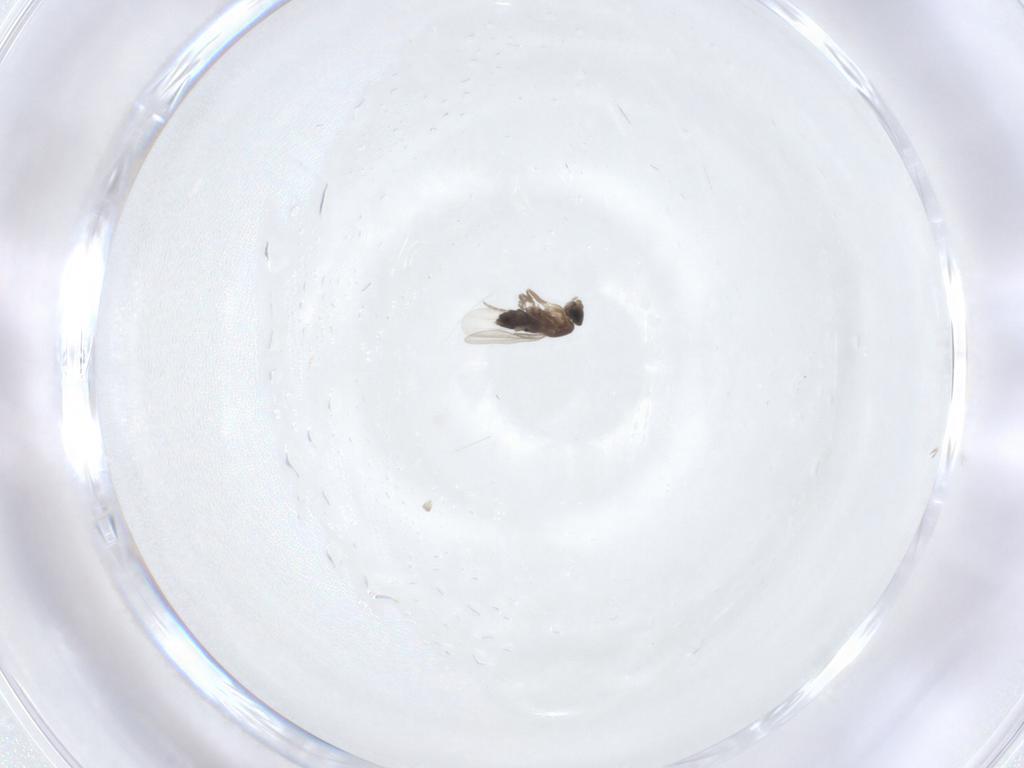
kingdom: Animalia
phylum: Arthropoda
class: Insecta
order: Diptera
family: Phoridae
